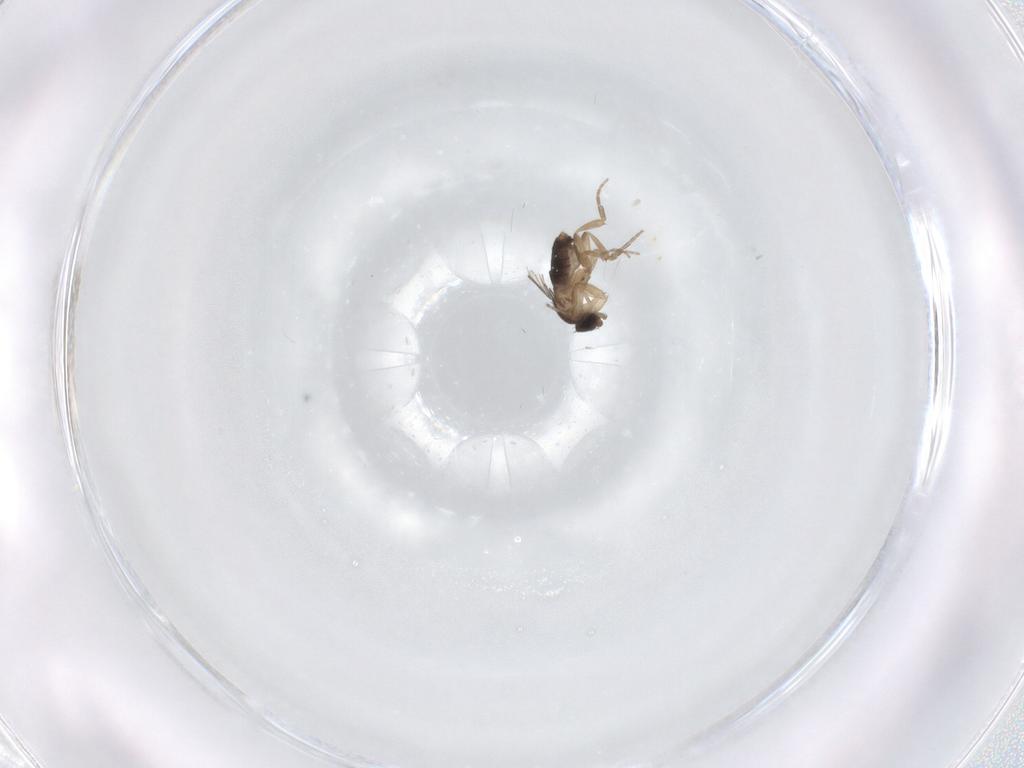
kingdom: Animalia
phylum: Arthropoda
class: Insecta
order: Diptera
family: Phoridae
